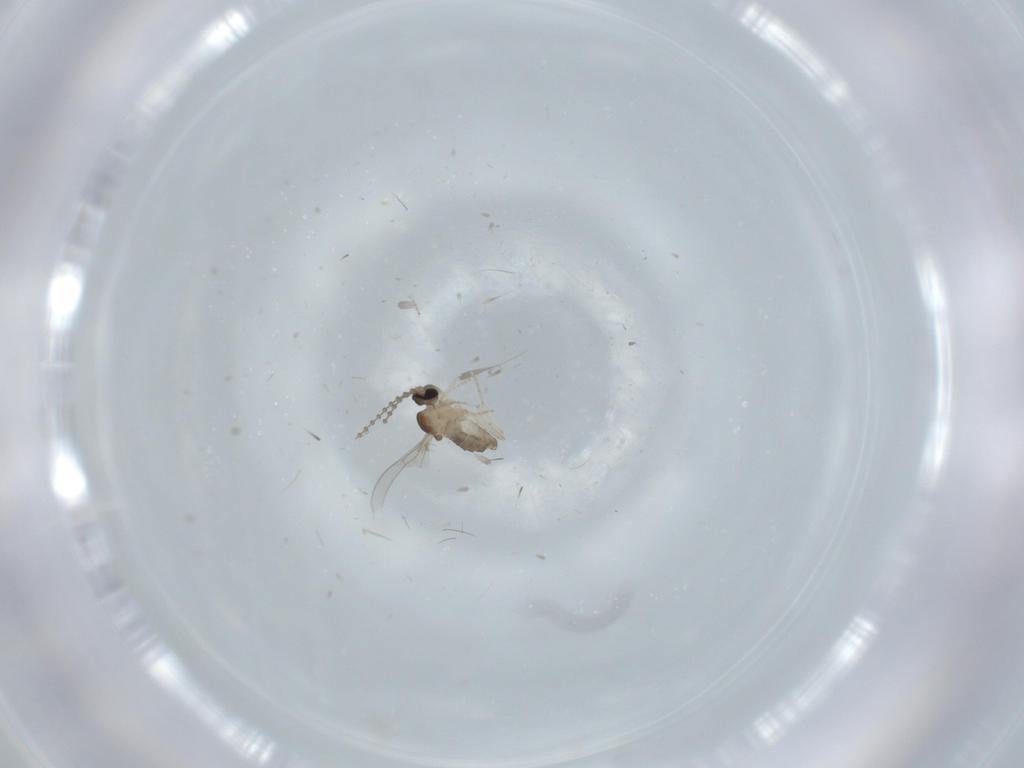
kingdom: Animalia
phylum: Arthropoda
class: Insecta
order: Diptera
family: Cecidomyiidae
